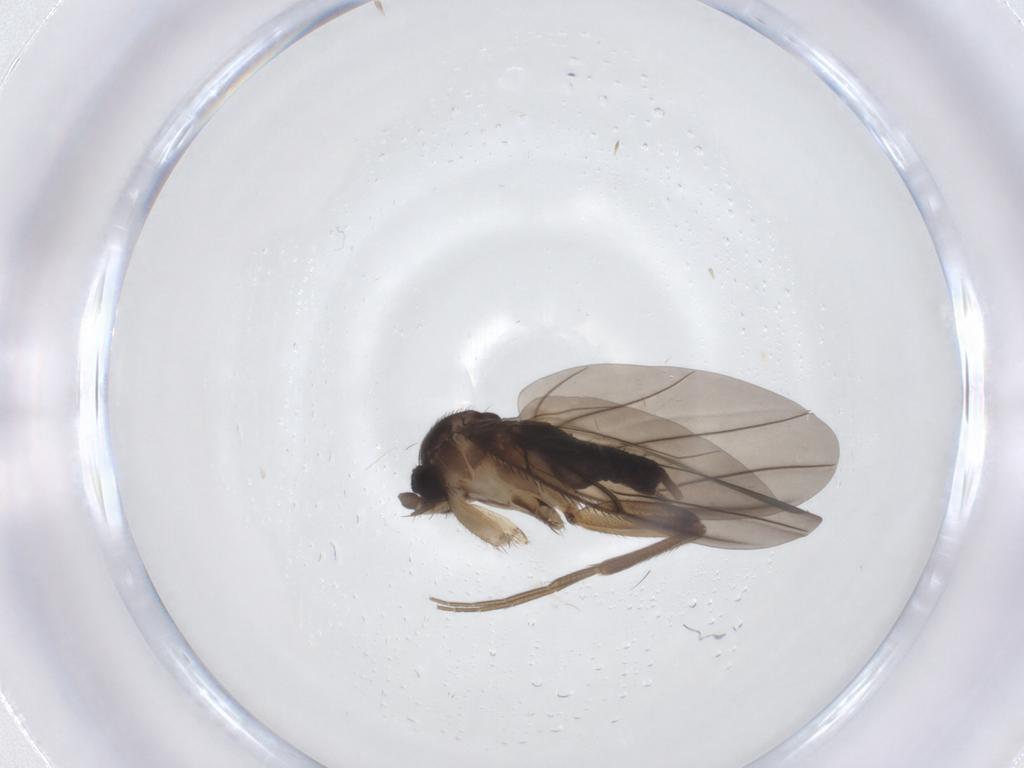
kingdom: Animalia
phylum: Arthropoda
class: Insecta
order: Diptera
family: Phoridae
